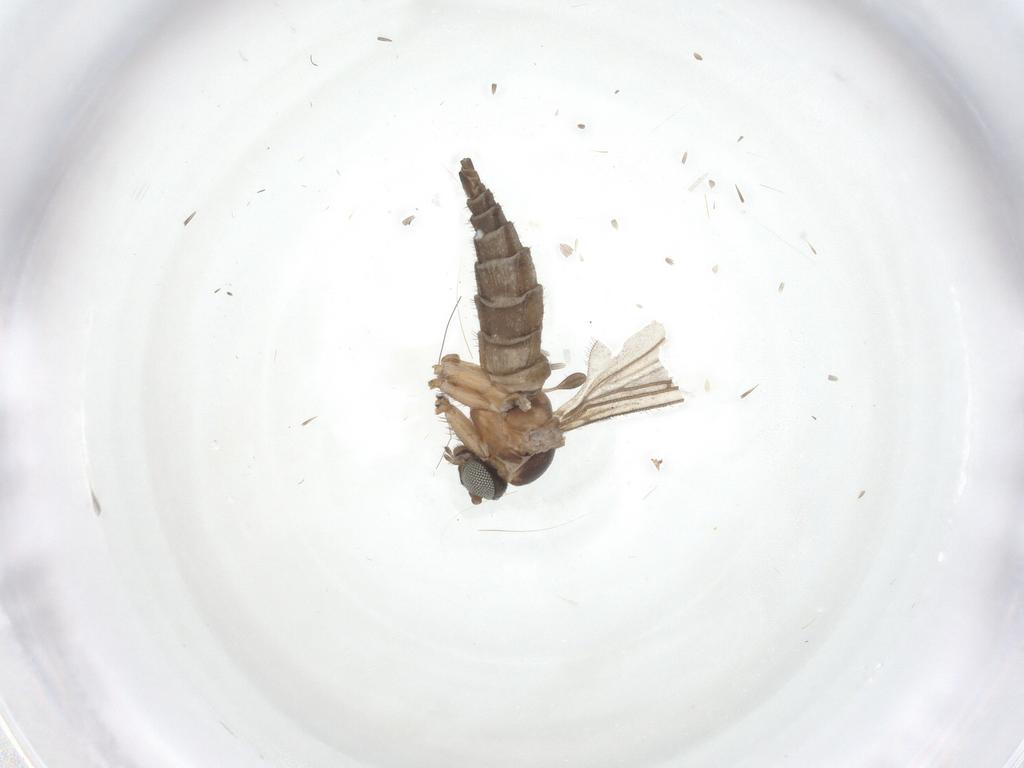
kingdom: Animalia
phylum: Arthropoda
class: Insecta
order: Diptera
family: Sciaridae
